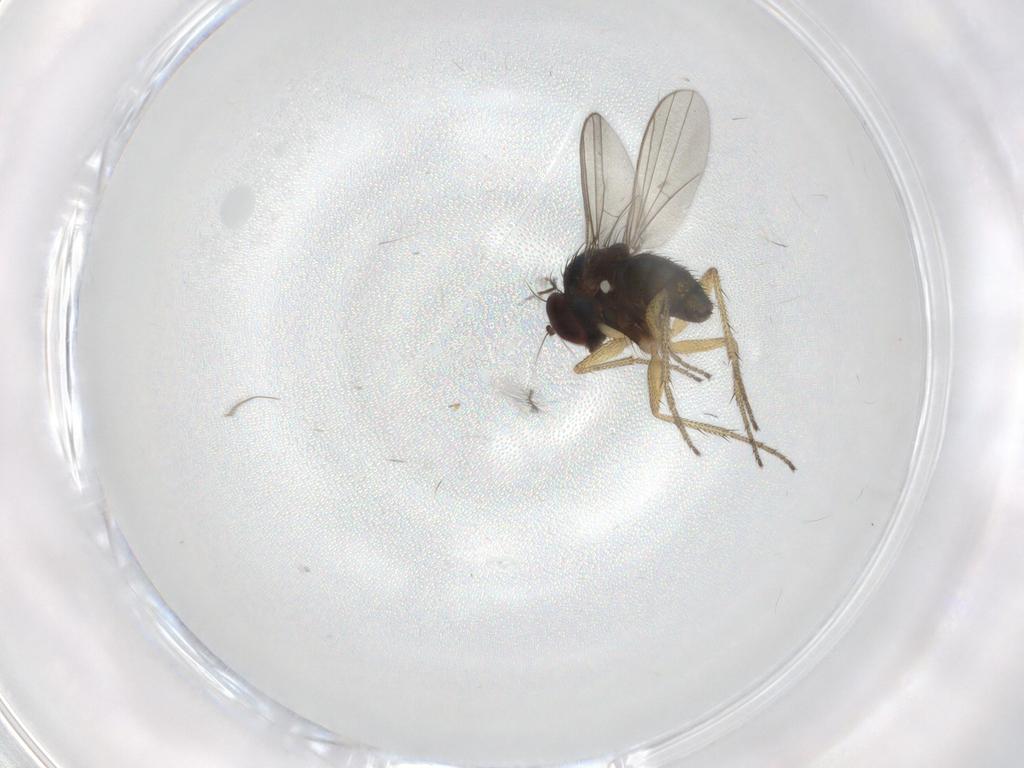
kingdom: Animalia
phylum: Arthropoda
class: Insecta
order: Diptera
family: Chironomidae
